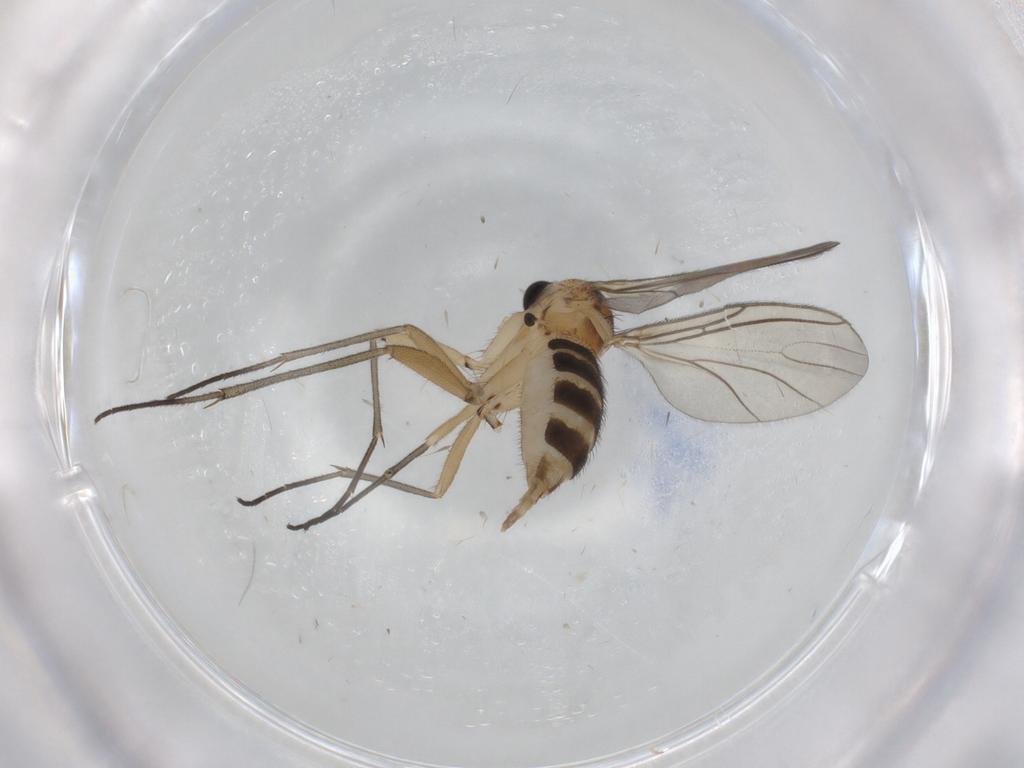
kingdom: Animalia
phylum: Arthropoda
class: Insecta
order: Diptera
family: Sciaridae
